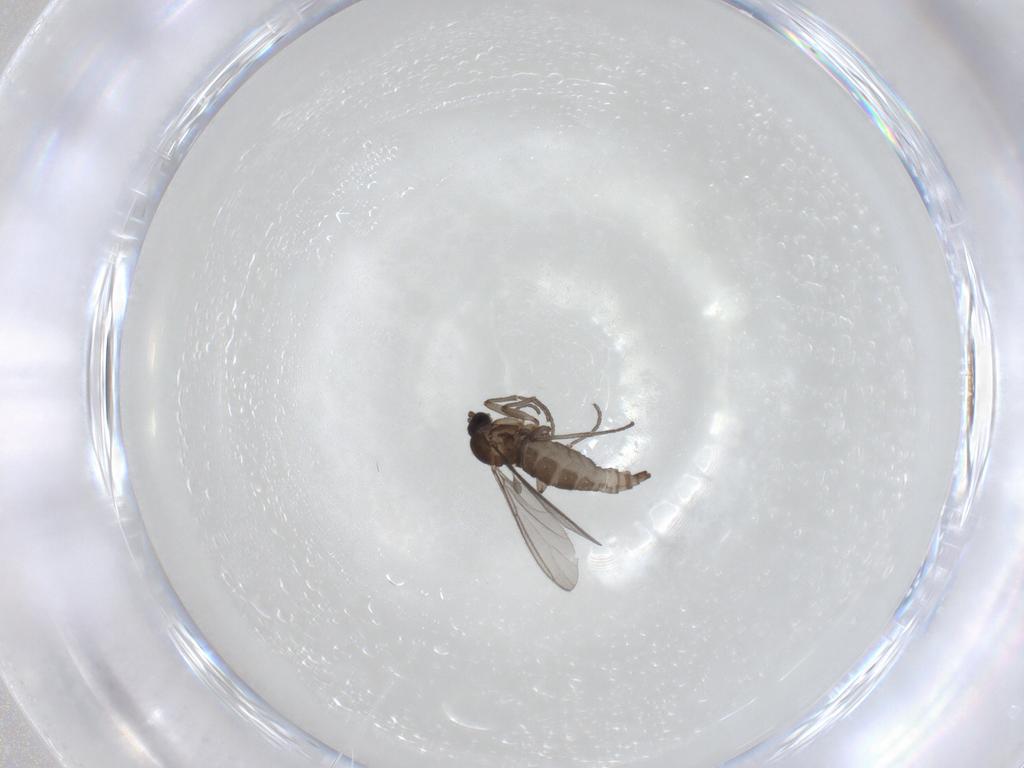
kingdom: Animalia
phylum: Arthropoda
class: Insecta
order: Diptera
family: Sciaridae
